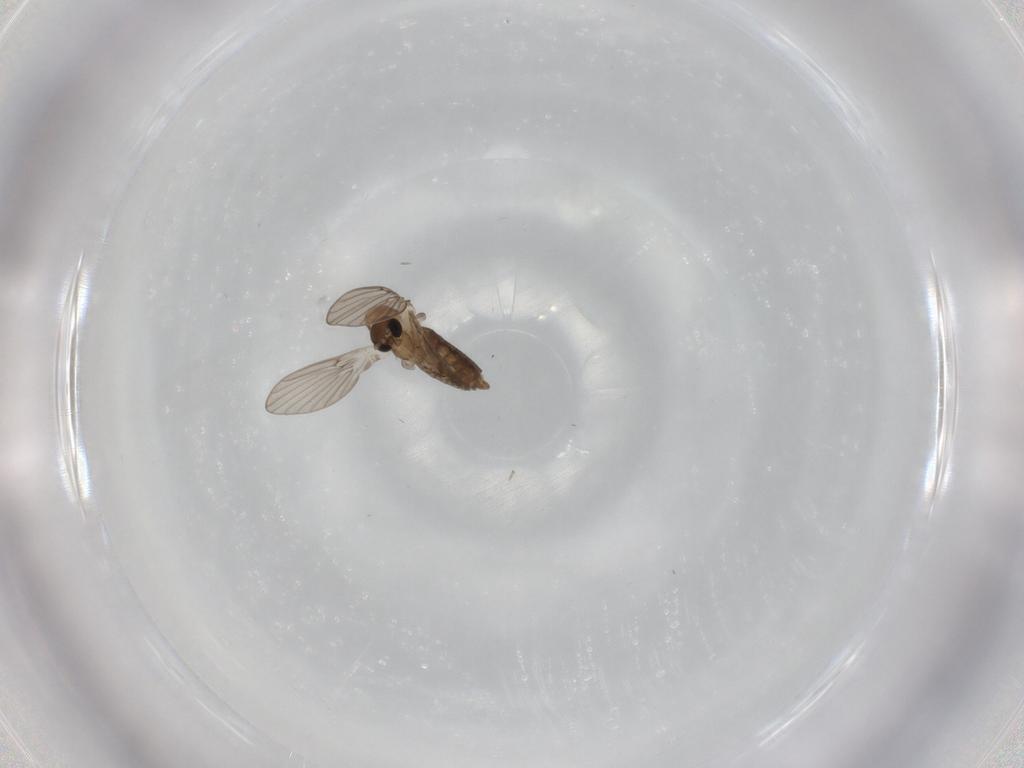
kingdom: Animalia
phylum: Arthropoda
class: Insecta
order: Diptera
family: Psychodidae
